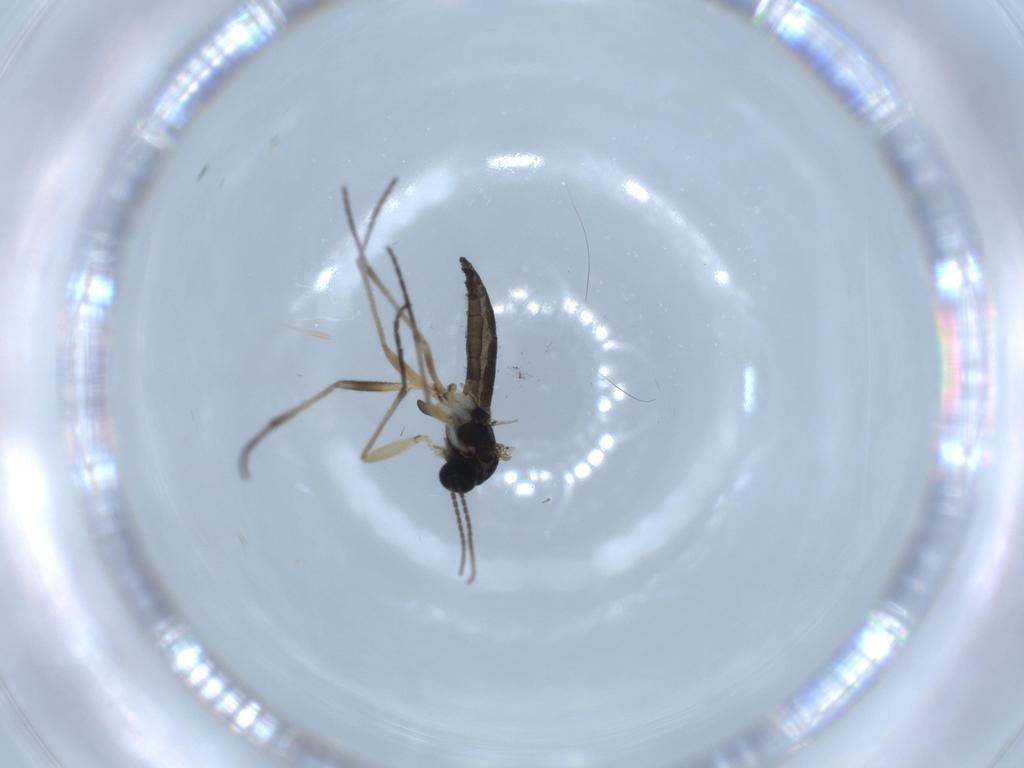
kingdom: Animalia
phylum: Arthropoda
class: Insecta
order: Diptera
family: Sciaridae
